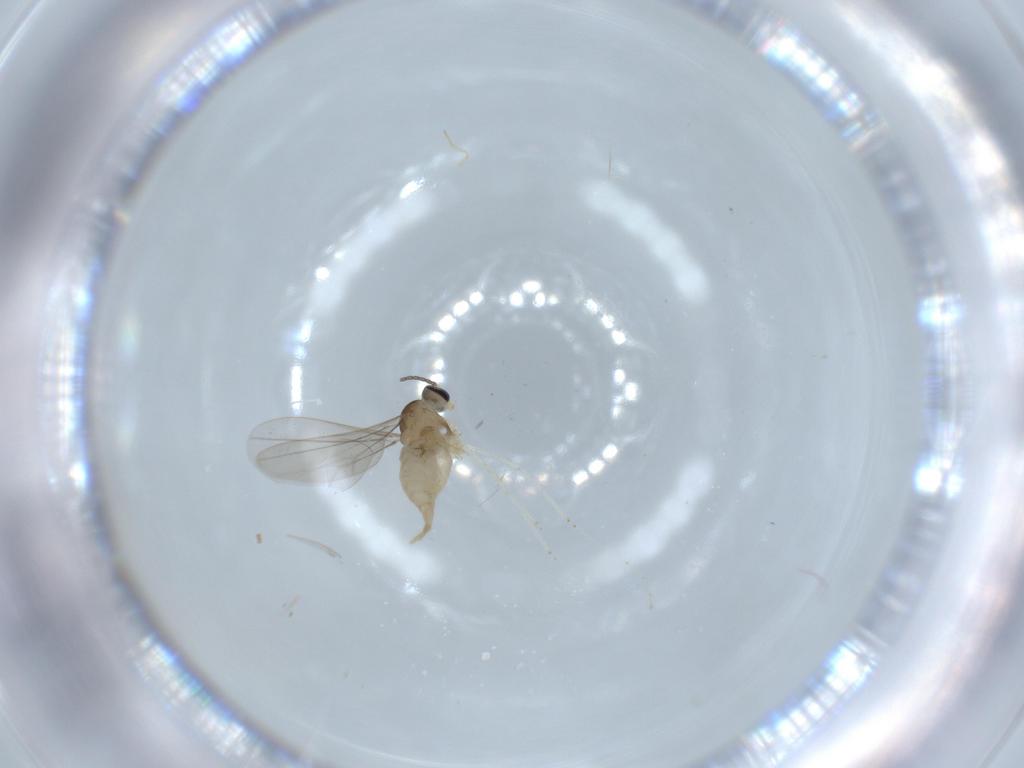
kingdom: Animalia
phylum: Arthropoda
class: Insecta
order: Diptera
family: Cecidomyiidae
